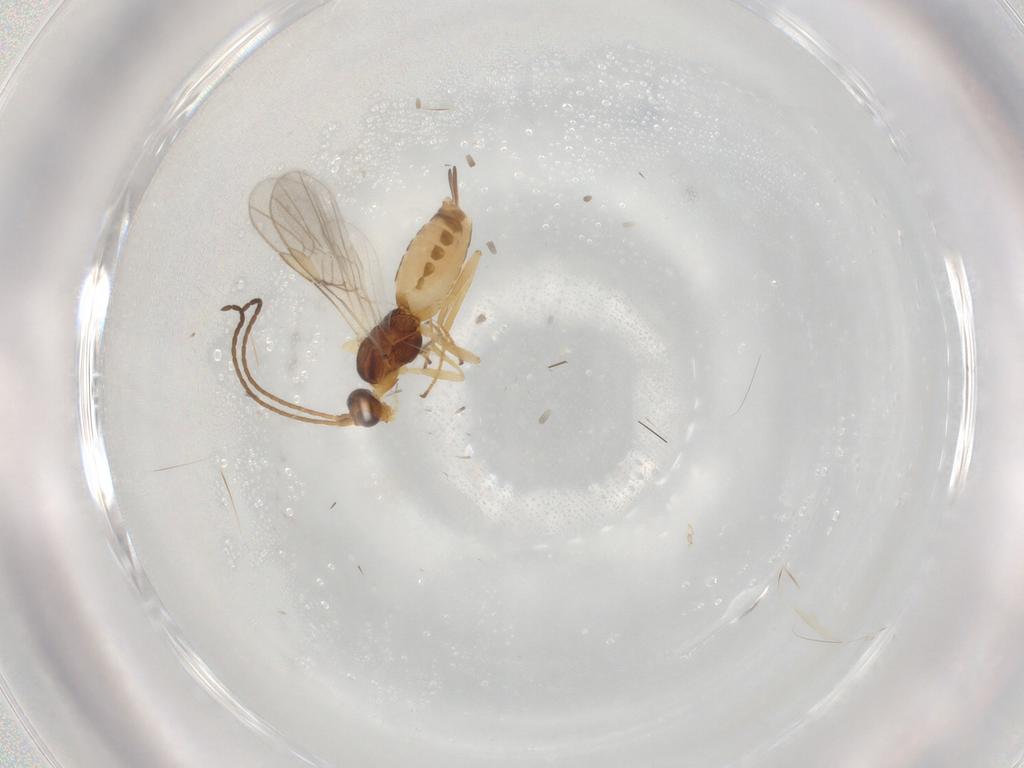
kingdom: Animalia
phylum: Arthropoda
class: Insecta
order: Hymenoptera
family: Braconidae
